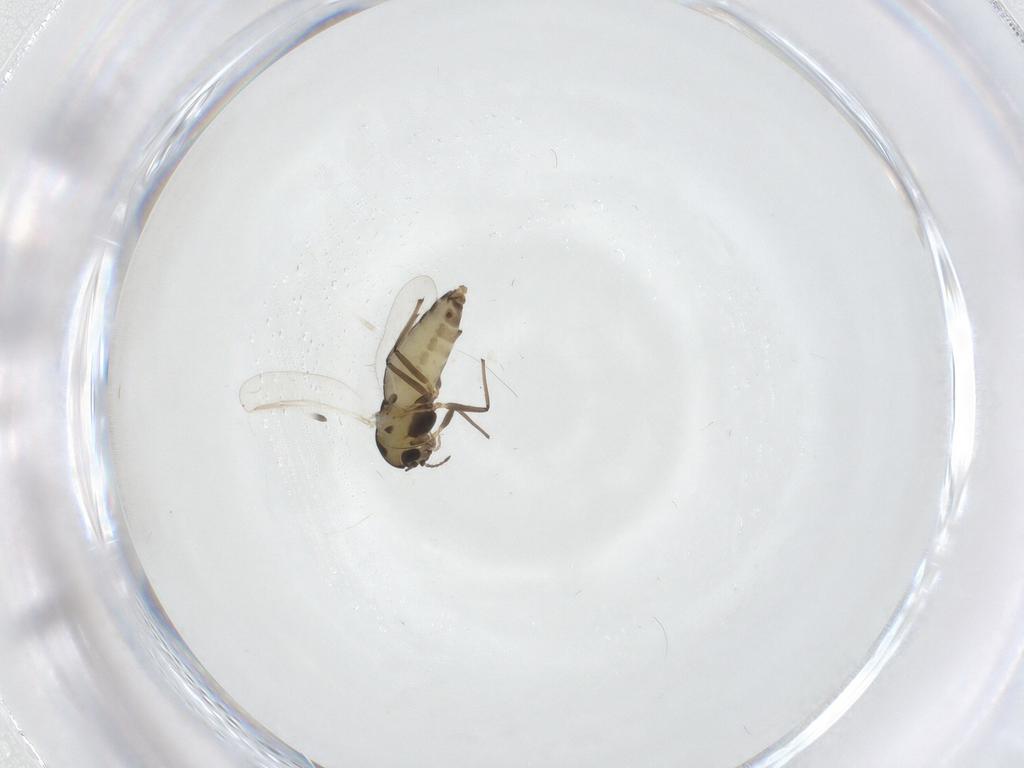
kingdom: Animalia
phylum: Arthropoda
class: Insecta
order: Diptera
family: Chironomidae
